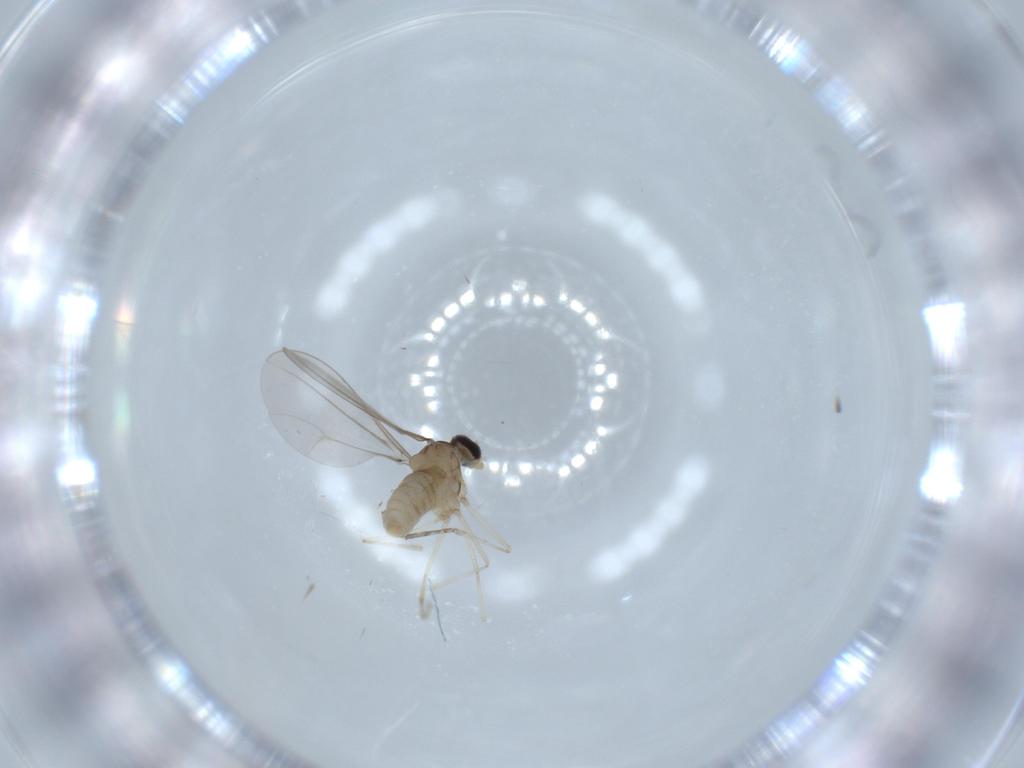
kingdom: Animalia
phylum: Arthropoda
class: Insecta
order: Diptera
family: Cecidomyiidae
